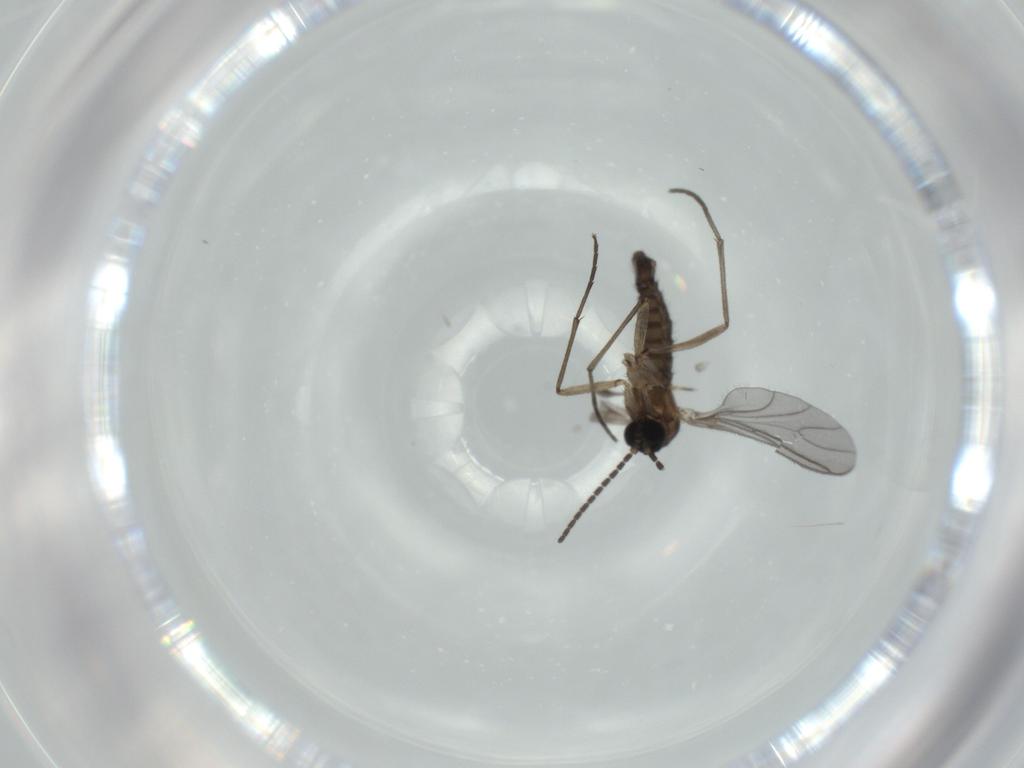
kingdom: Animalia
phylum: Arthropoda
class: Insecta
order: Diptera
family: Sciaridae
